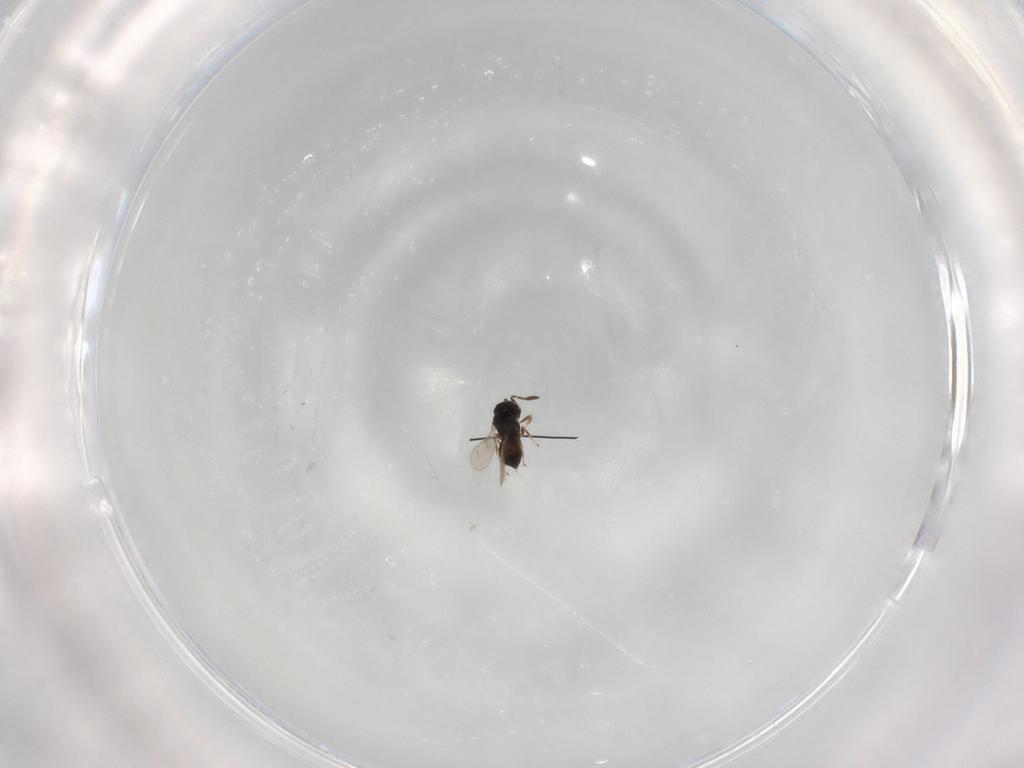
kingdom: Animalia
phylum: Arthropoda
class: Insecta
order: Hymenoptera
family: Scelionidae
